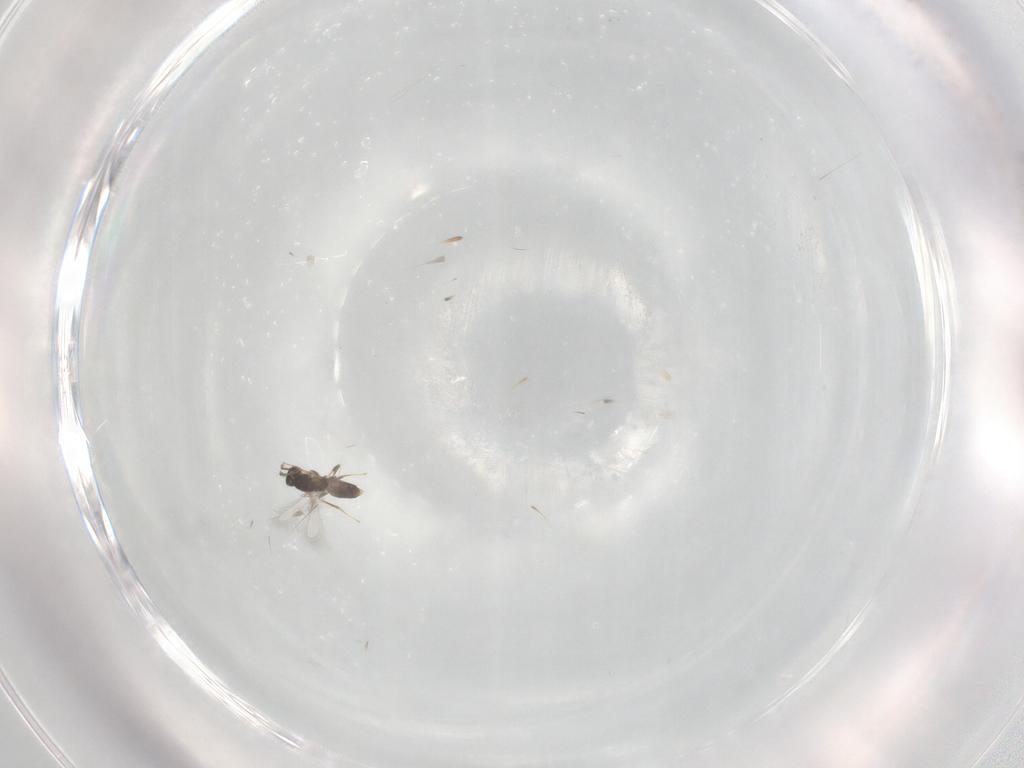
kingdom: Animalia
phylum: Arthropoda
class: Insecta
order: Hymenoptera
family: Mymaridae
